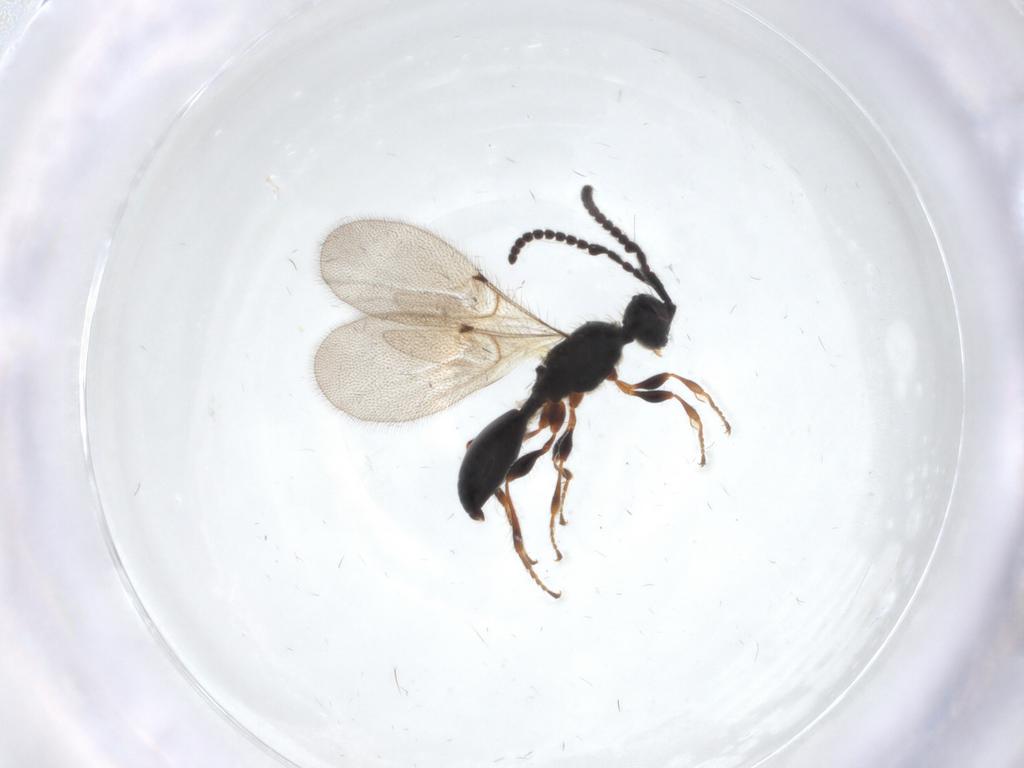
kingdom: Animalia
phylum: Arthropoda
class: Insecta
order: Hymenoptera
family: Diapriidae
